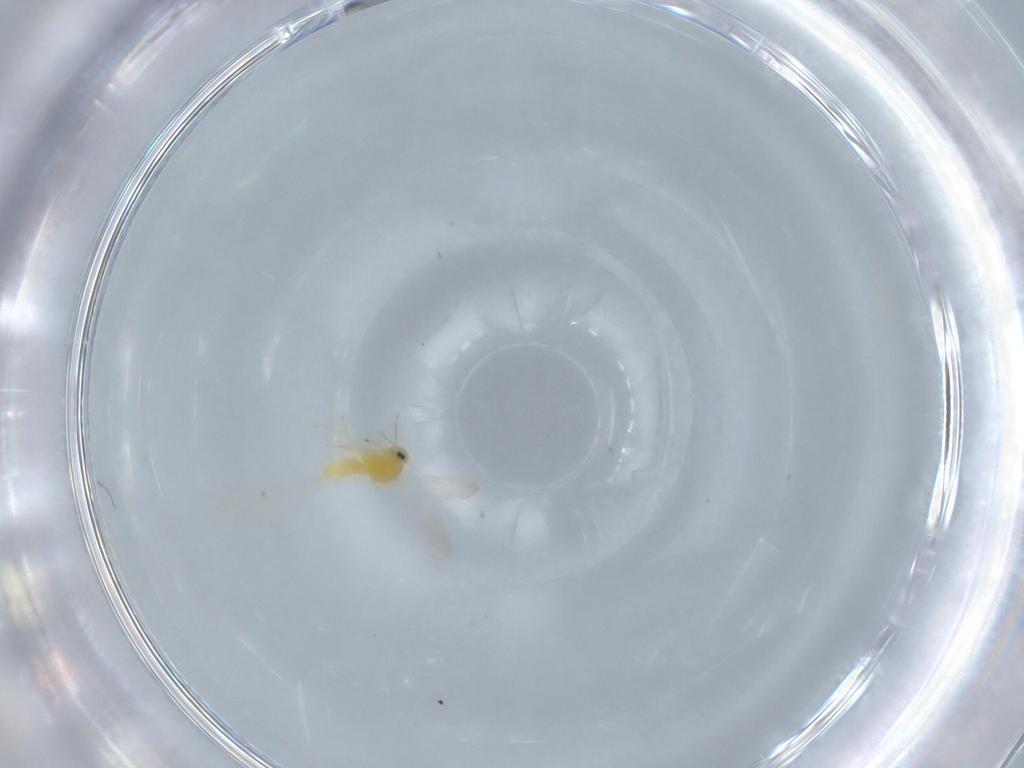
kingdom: Animalia
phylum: Arthropoda
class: Insecta
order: Hemiptera
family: Aleyrodidae
